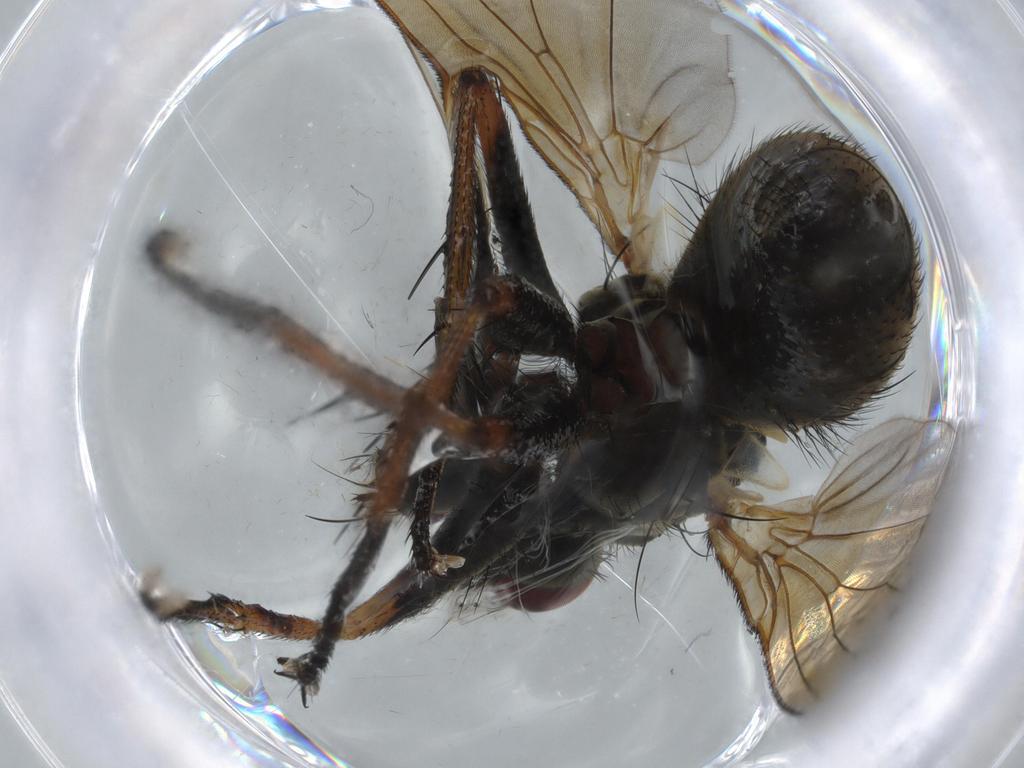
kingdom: Animalia
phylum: Arthropoda
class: Insecta
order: Diptera
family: Muscidae
